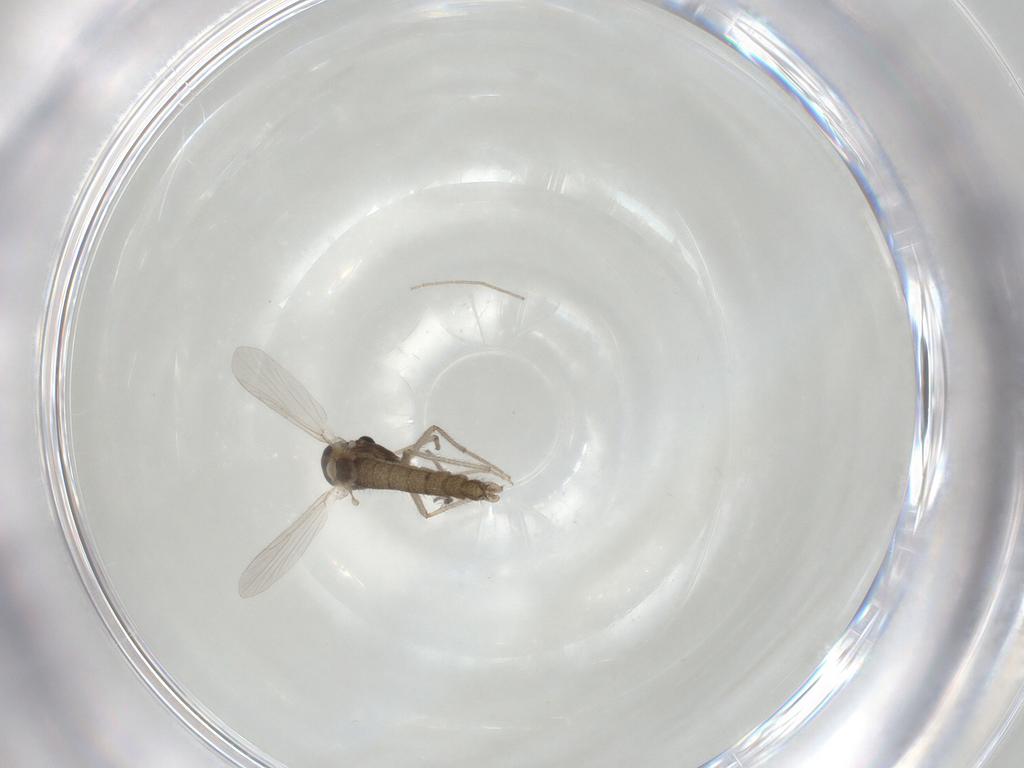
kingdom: Animalia
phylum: Arthropoda
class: Insecta
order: Diptera
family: Chironomidae
